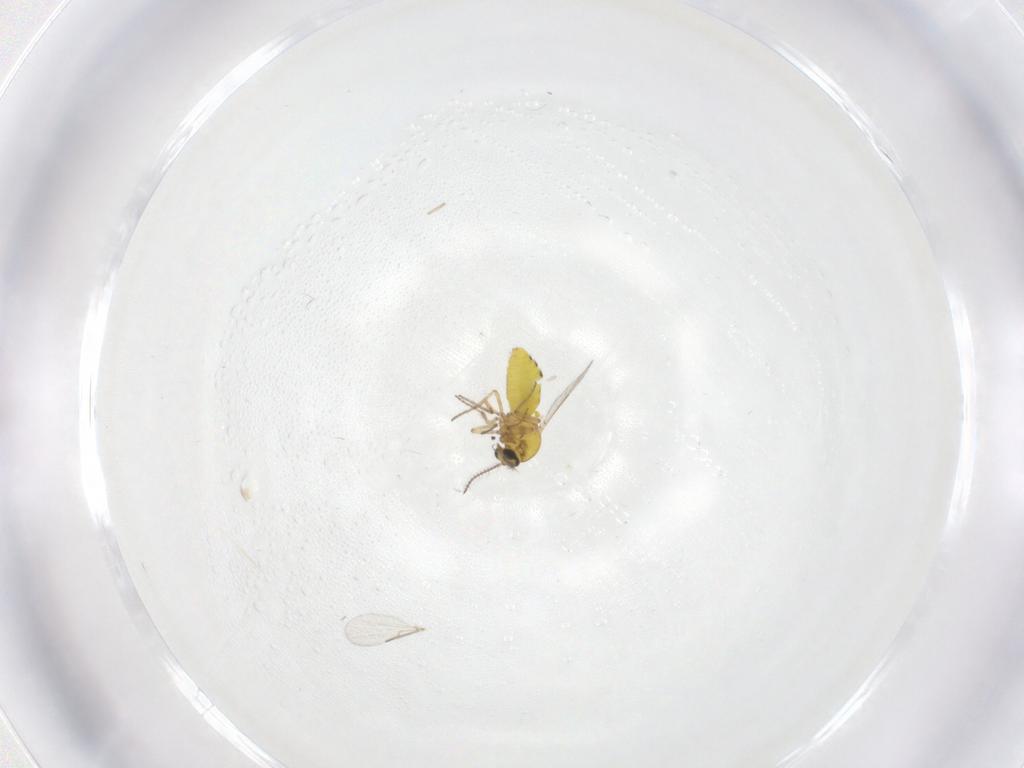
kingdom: Animalia
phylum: Arthropoda
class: Insecta
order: Diptera
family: Ceratopogonidae
